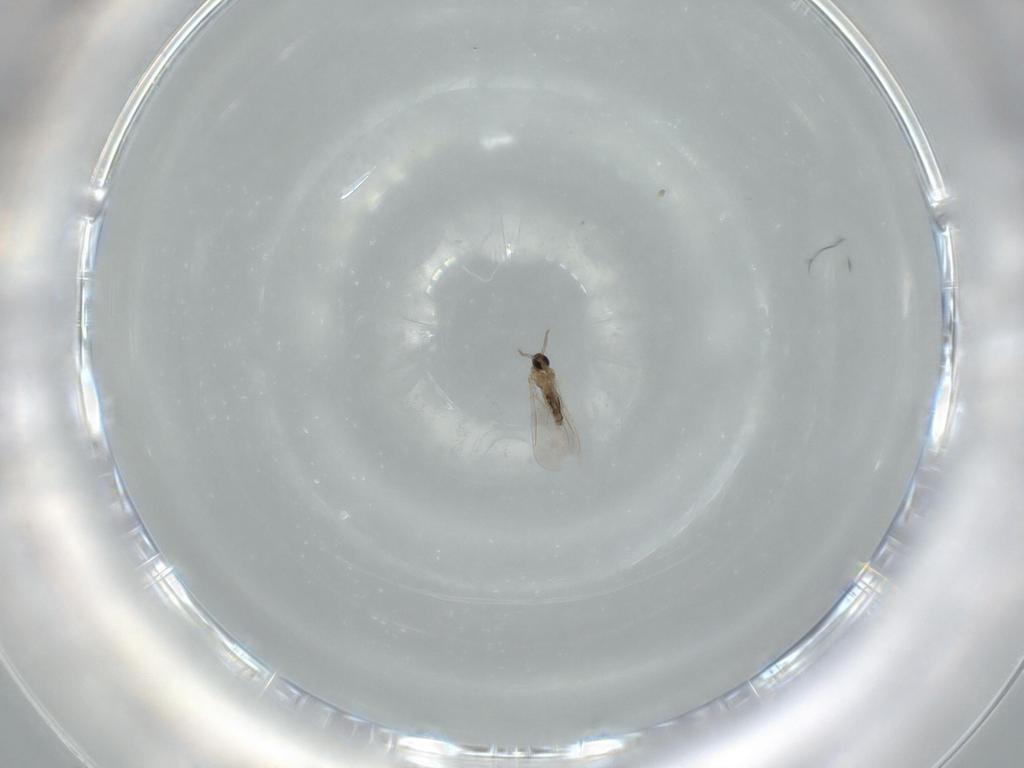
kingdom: Animalia
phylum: Arthropoda
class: Insecta
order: Diptera
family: Cecidomyiidae
